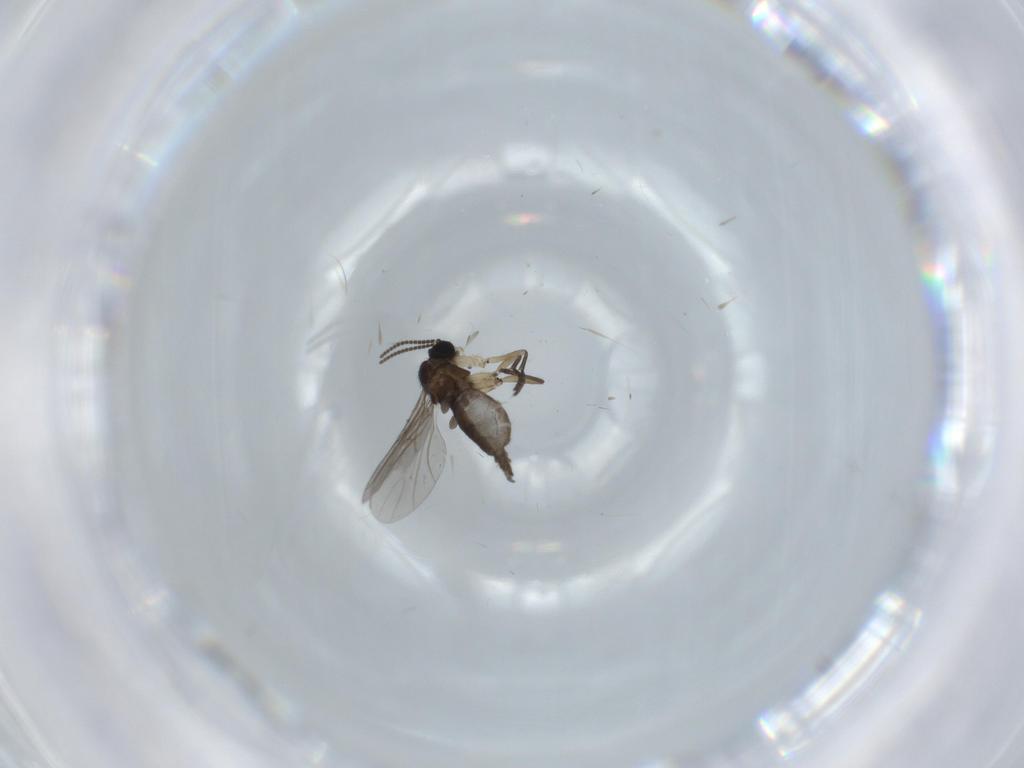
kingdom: Animalia
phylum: Arthropoda
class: Insecta
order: Diptera
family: Sciaridae
